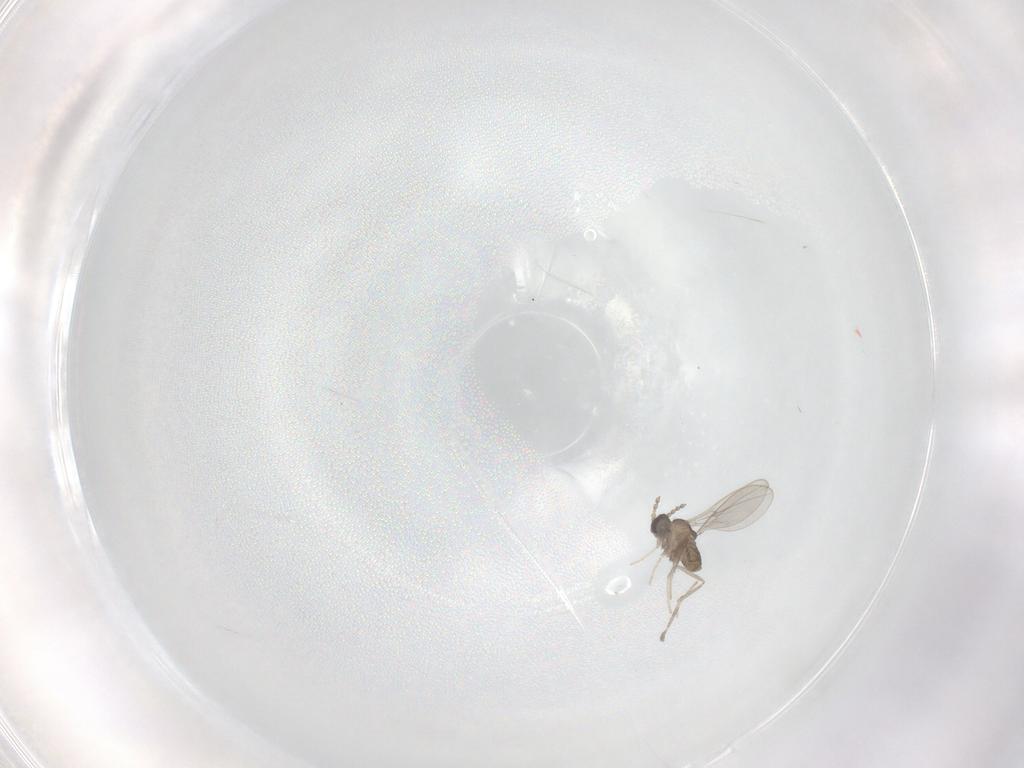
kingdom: Animalia
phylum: Arthropoda
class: Insecta
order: Diptera
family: Cecidomyiidae
